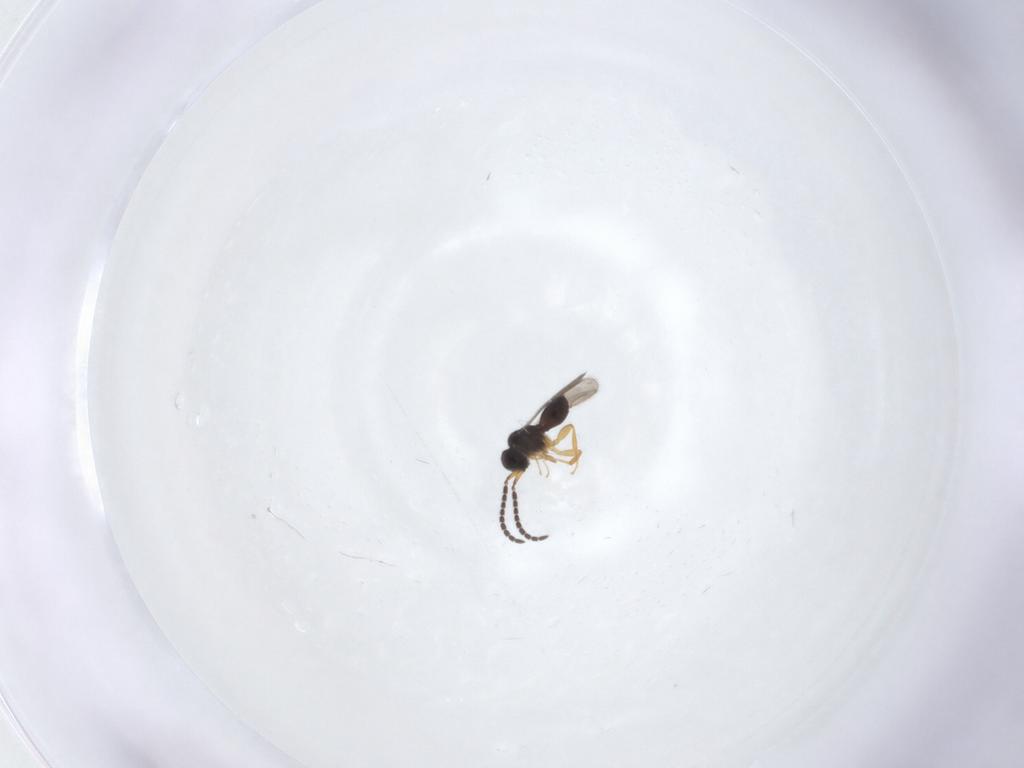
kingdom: Animalia
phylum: Arthropoda
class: Insecta
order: Hymenoptera
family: Ceraphronidae
